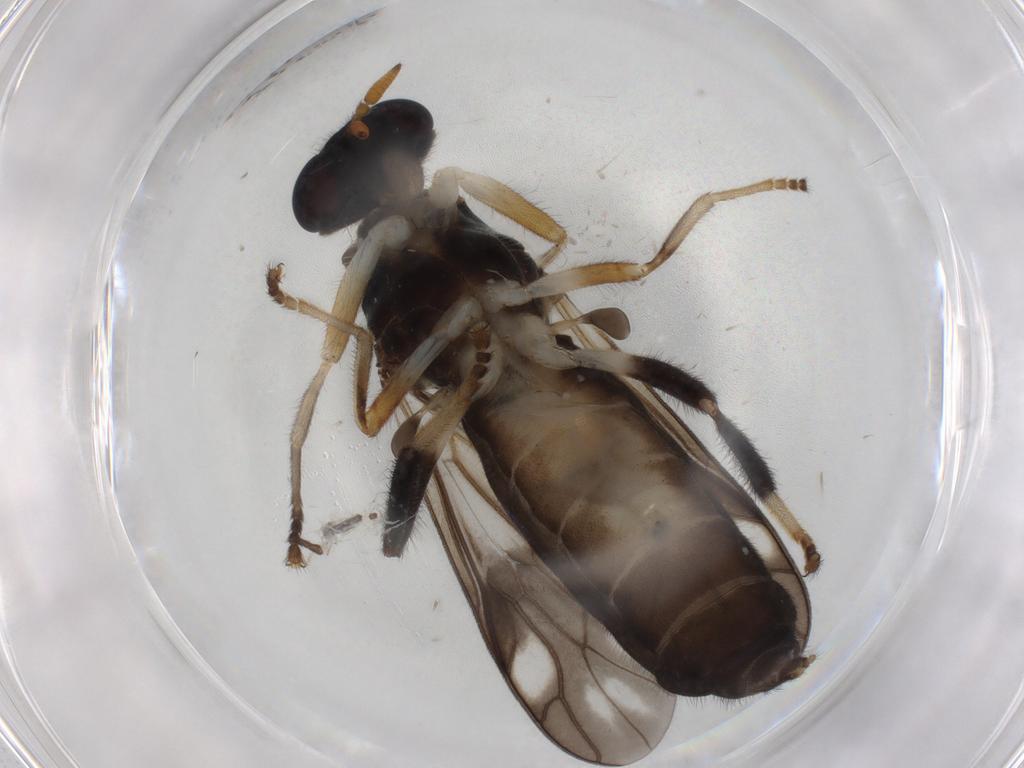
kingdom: Animalia
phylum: Arthropoda
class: Insecta
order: Diptera
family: Stratiomyidae
